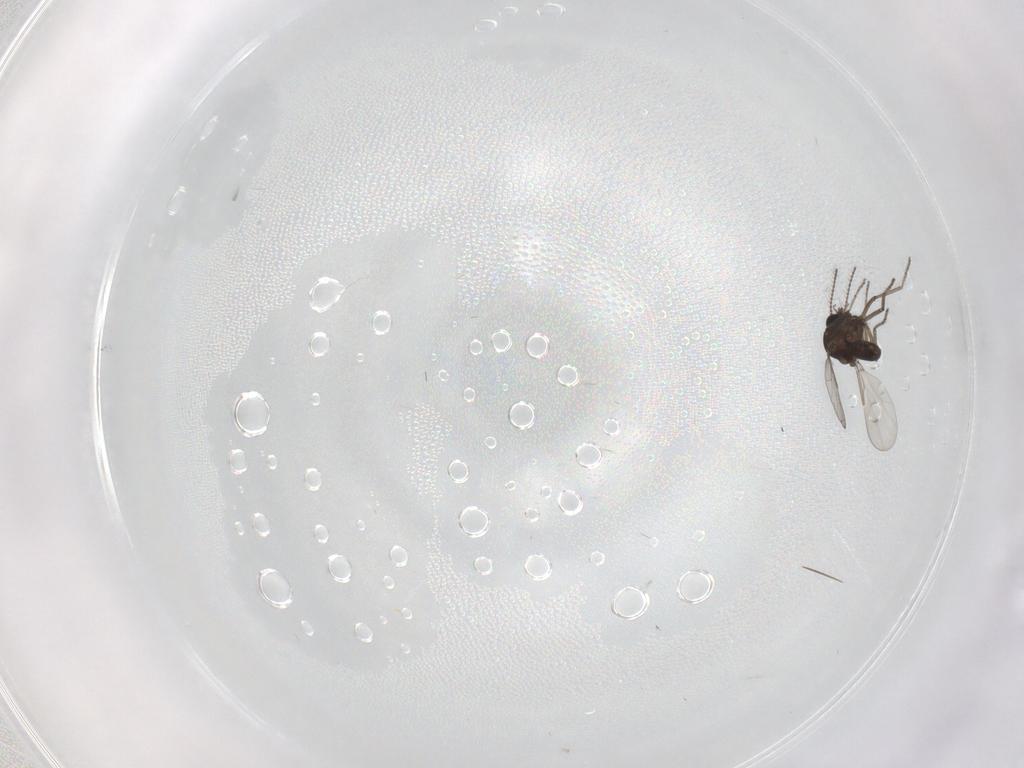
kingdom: Animalia
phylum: Arthropoda
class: Insecta
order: Diptera
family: Ceratopogonidae
